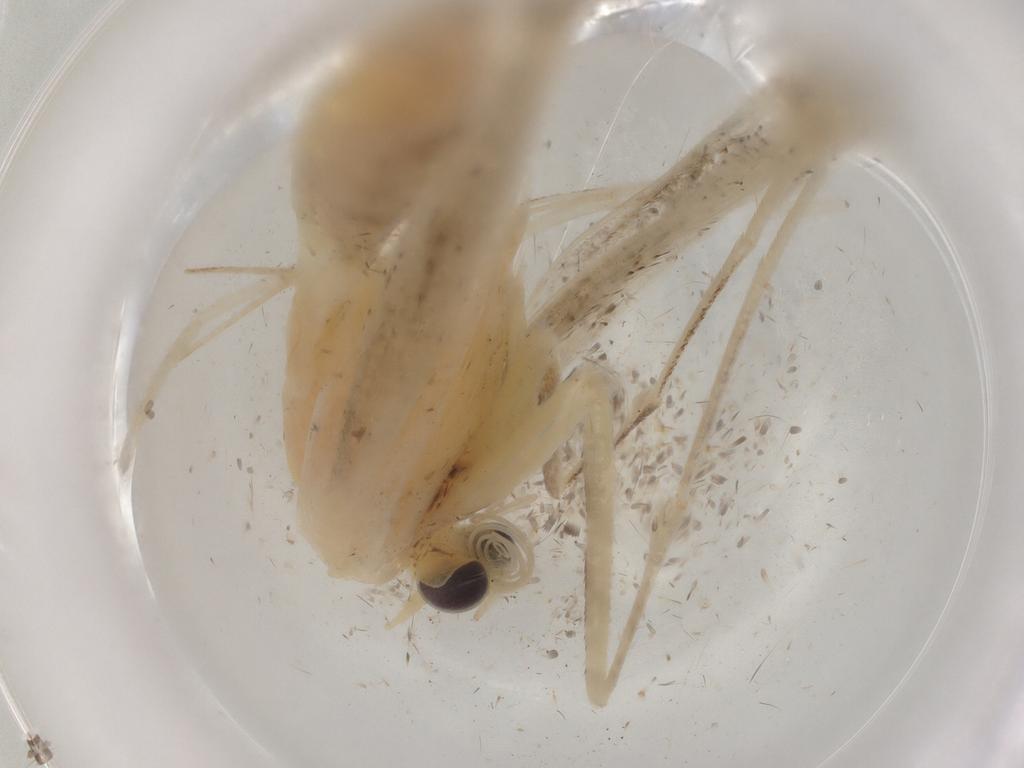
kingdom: Animalia
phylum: Arthropoda
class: Insecta
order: Lepidoptera
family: Pterophoridae
